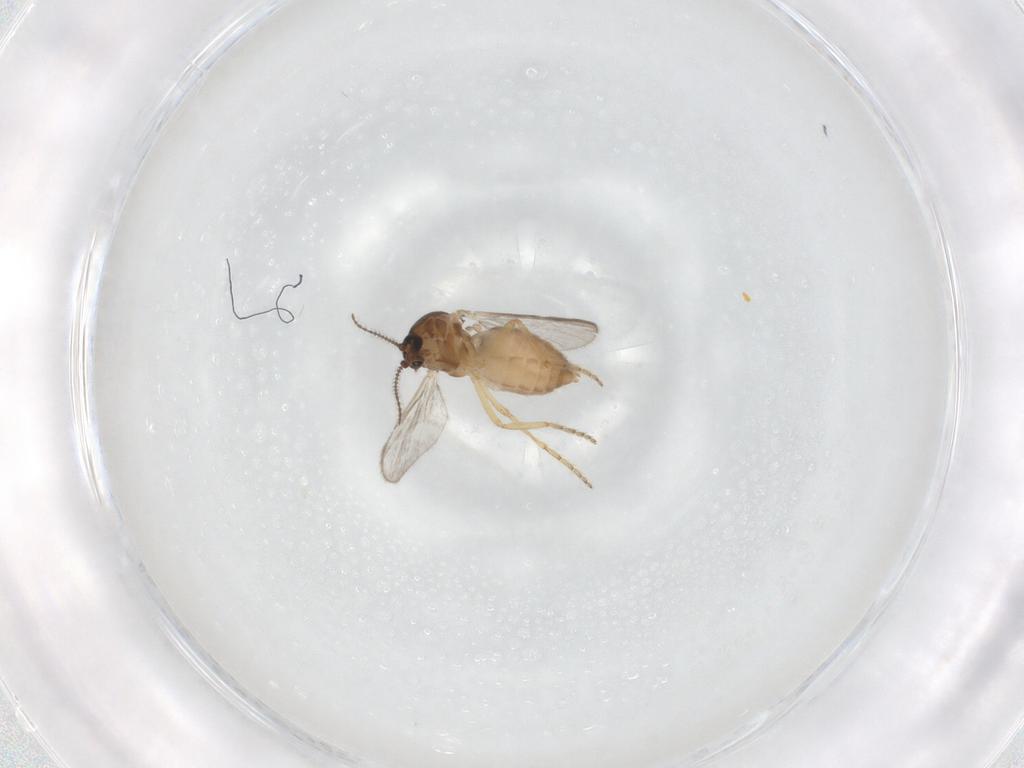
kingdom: Animalia
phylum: Arthropoda
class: Insecta
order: Diptera
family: Ceratopogonidae
